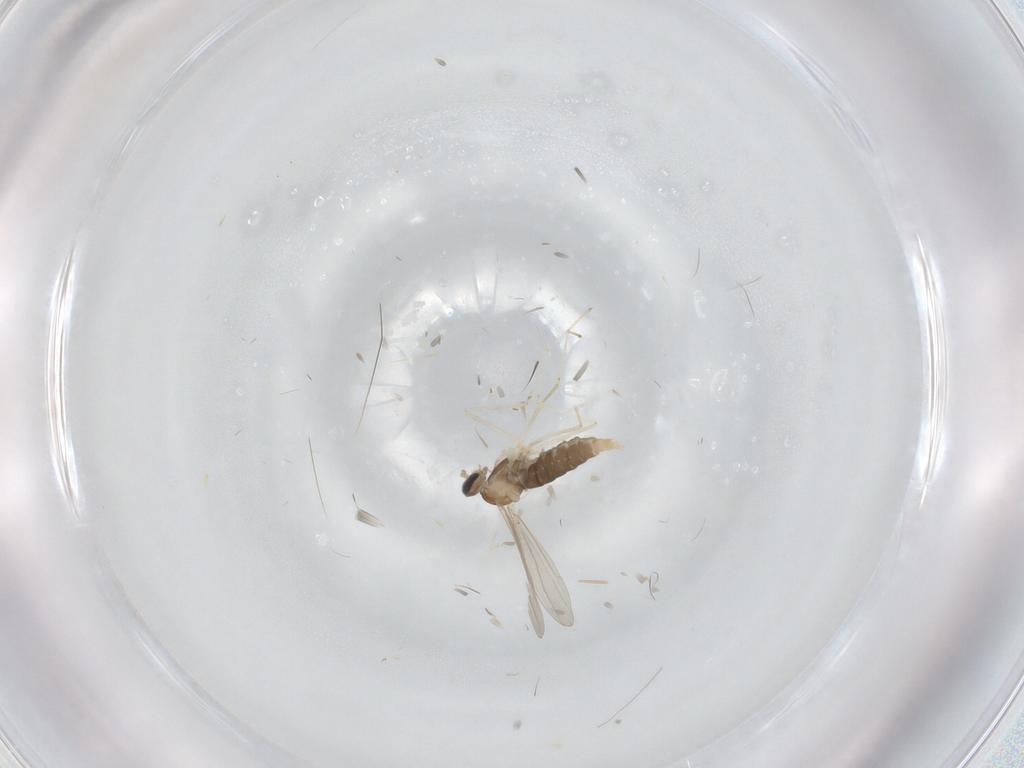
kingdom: Animalia
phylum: Arthropoda
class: Insecta
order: Diptera
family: Cecidomyiidae
